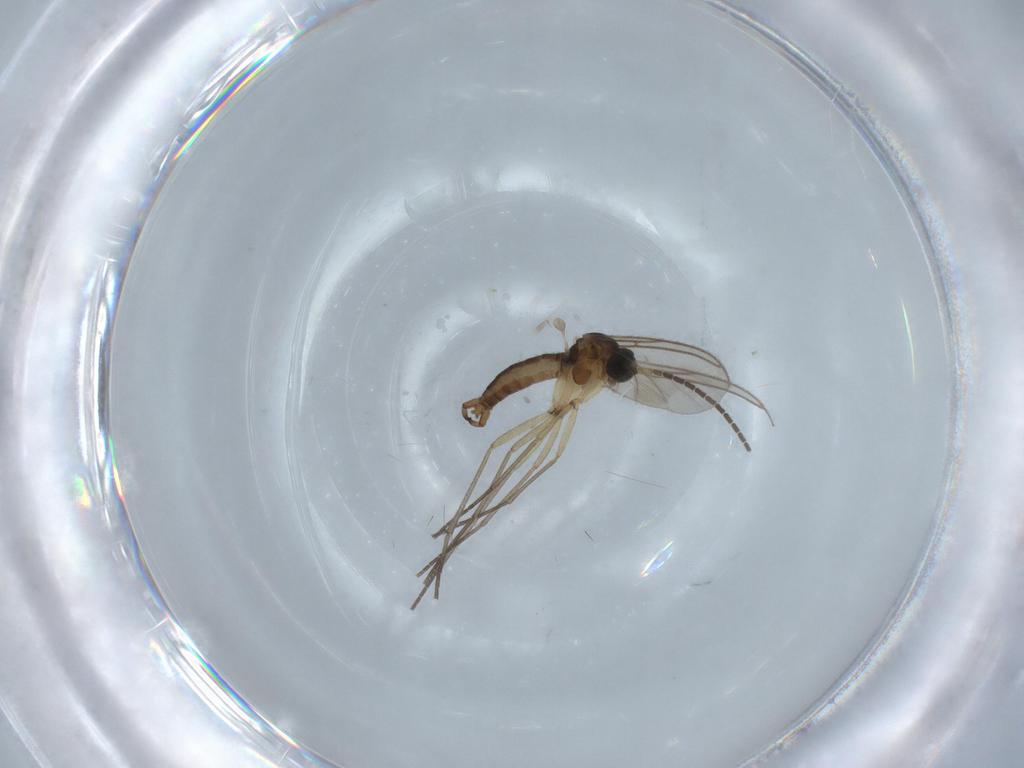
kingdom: Animalia
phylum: Arthropoda
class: Insecta
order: Diptera
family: Sciaridae
